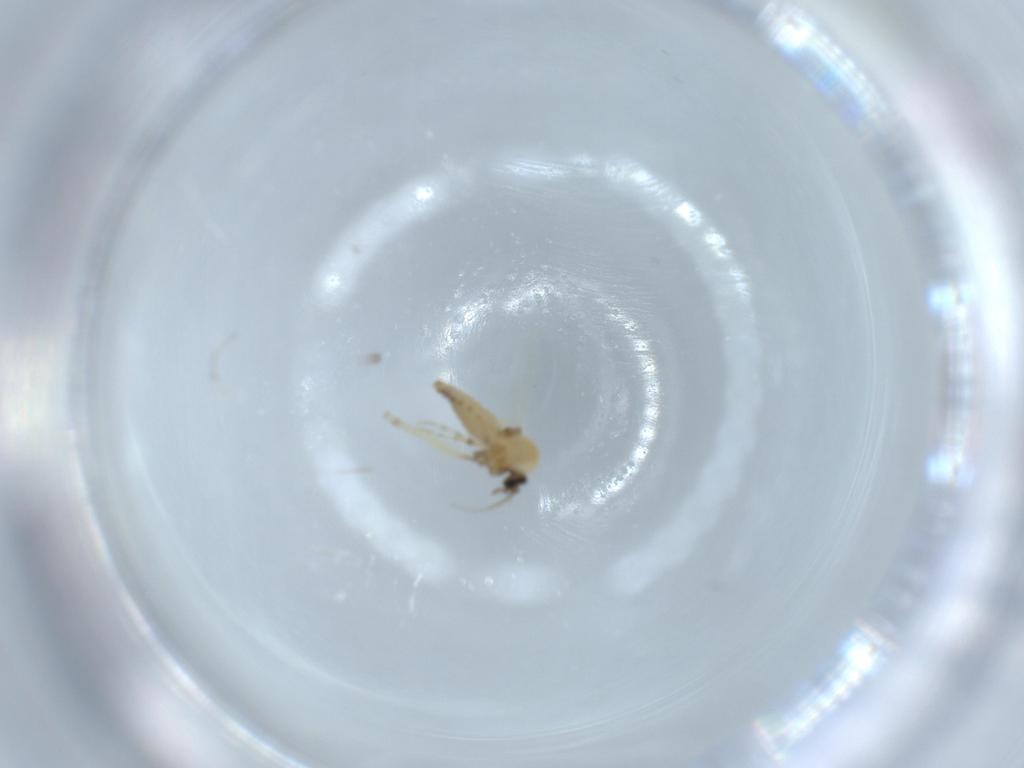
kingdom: Animalia
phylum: Arthropoda
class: Insecta
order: Diptera
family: Ceratopogonidae
